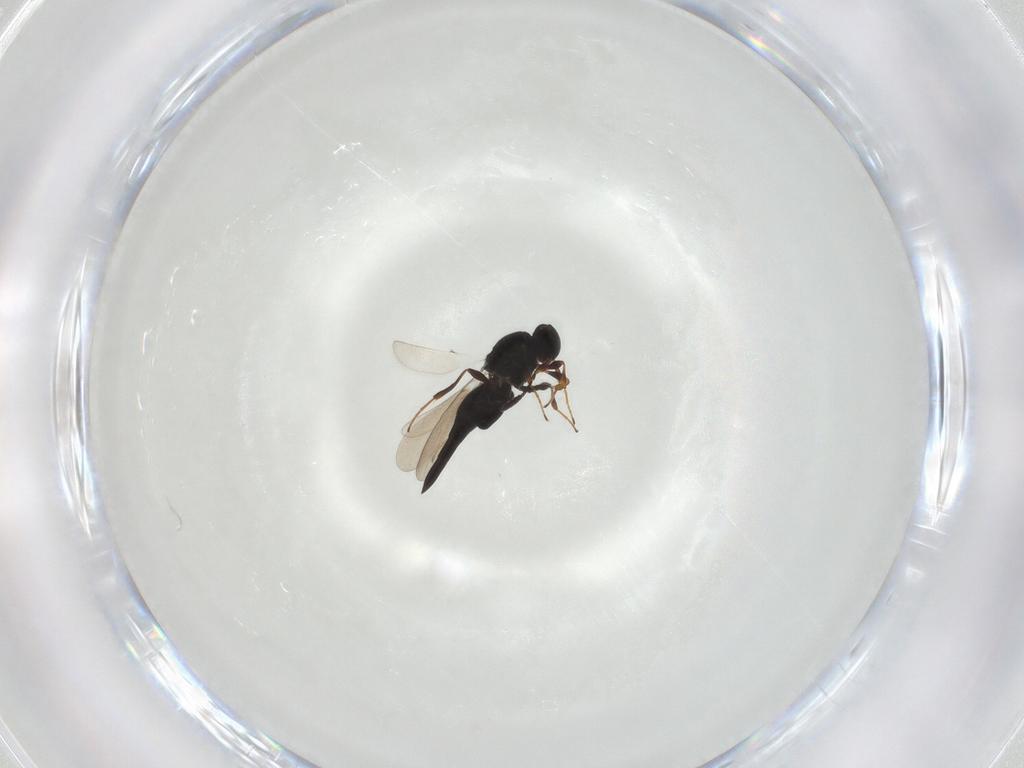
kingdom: Animalia
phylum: Arthropoda
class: Insecta
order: Hymenoptera
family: Platygastridae
